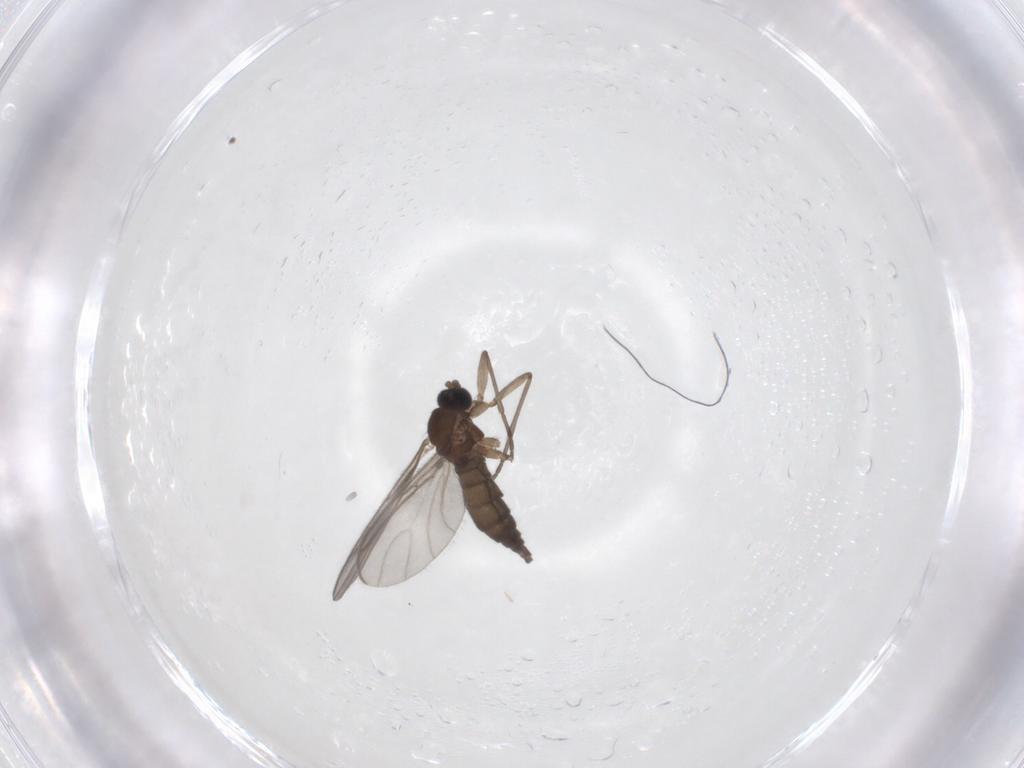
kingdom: Animalia
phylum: Arthropoda
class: Insecta
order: Diptera
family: Sciaridae
